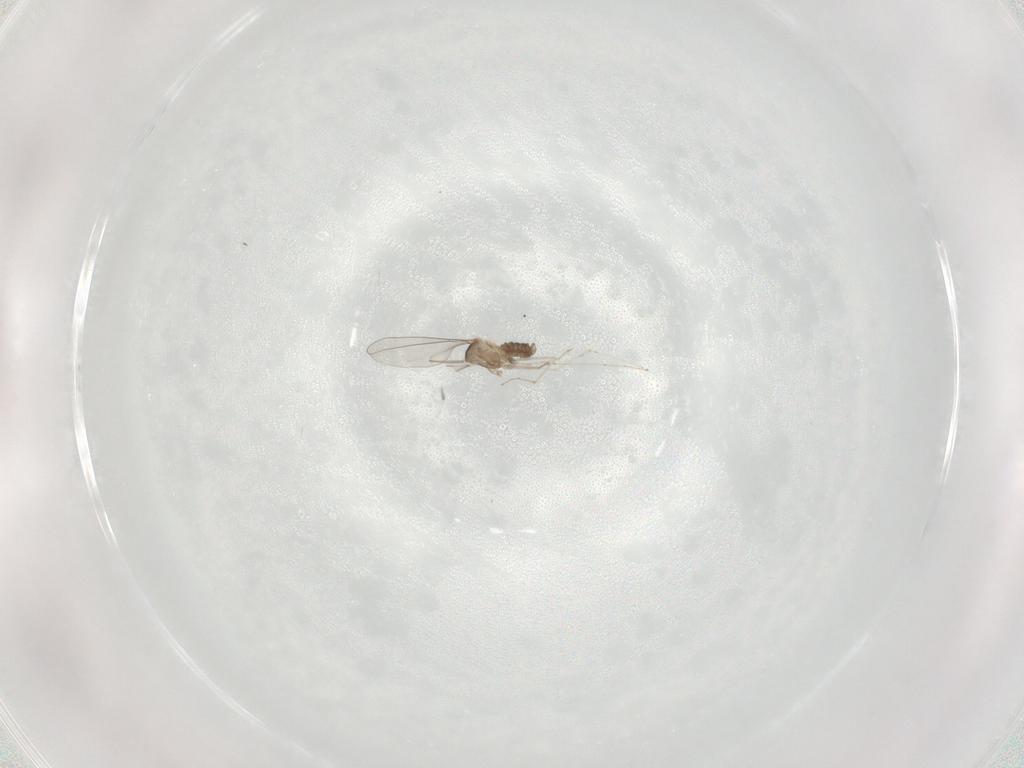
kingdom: Animalia
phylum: Arthropoda
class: Insecta
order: Diptera
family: Cecidomyiidae
